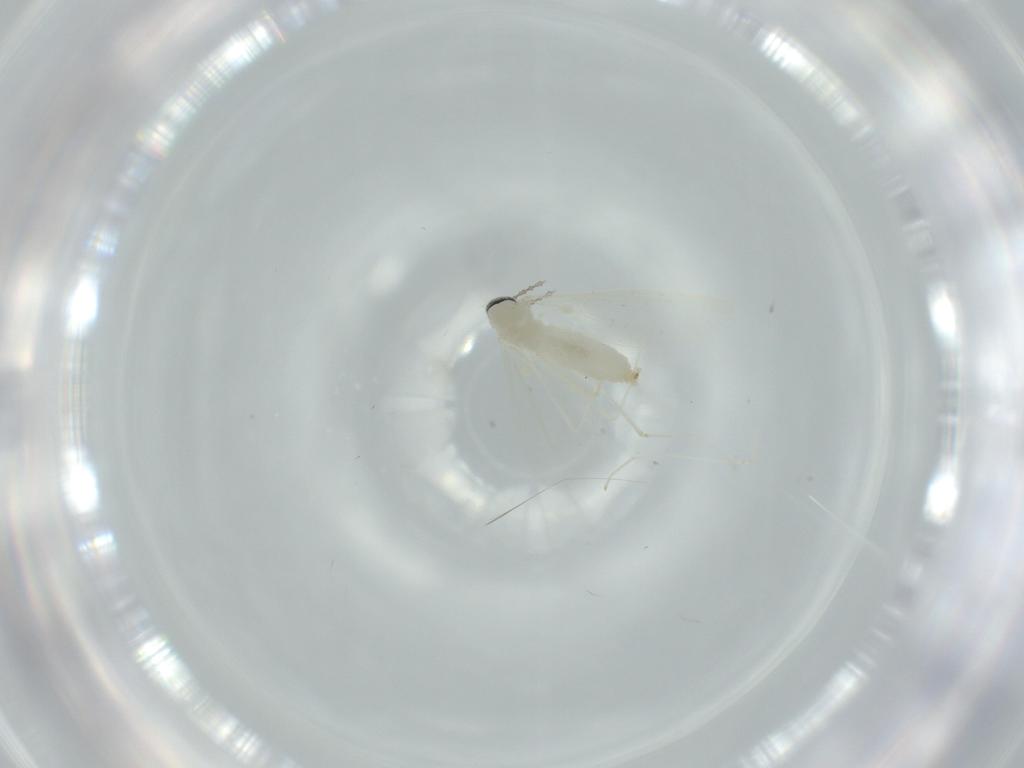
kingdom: Animalia
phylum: Arthropoda
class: Insecta
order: Diptera
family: Cecidomyiidae
